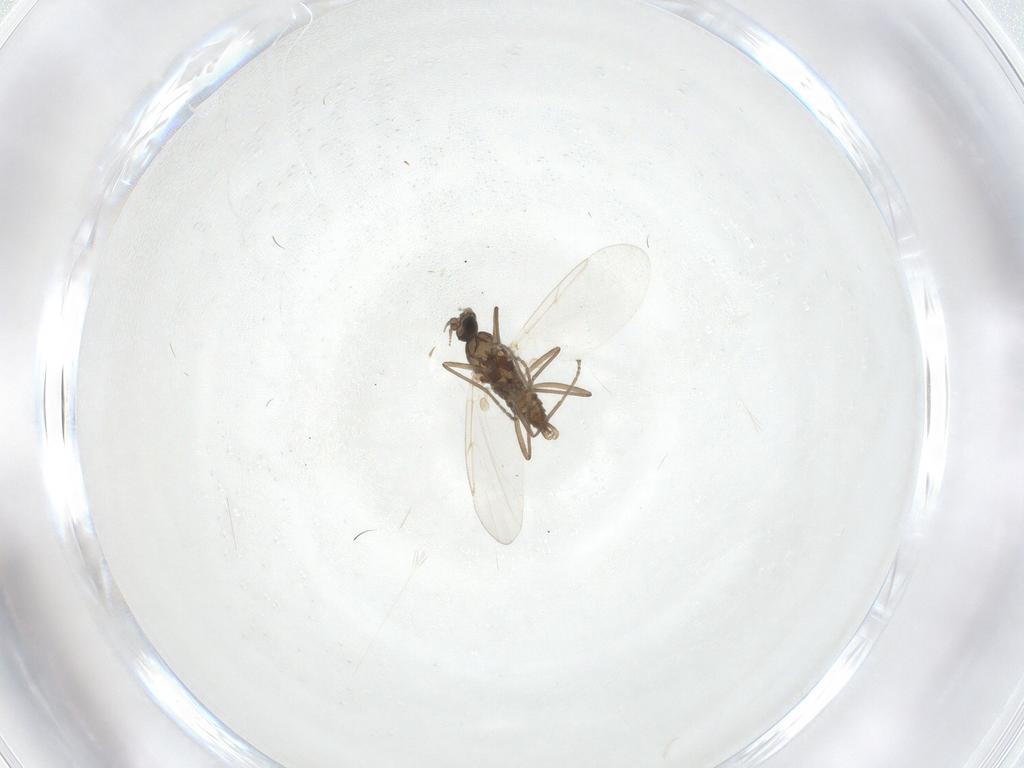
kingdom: Animalia
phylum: Arthropoda
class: Insecta
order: Diptera
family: Cecidomyiidae
